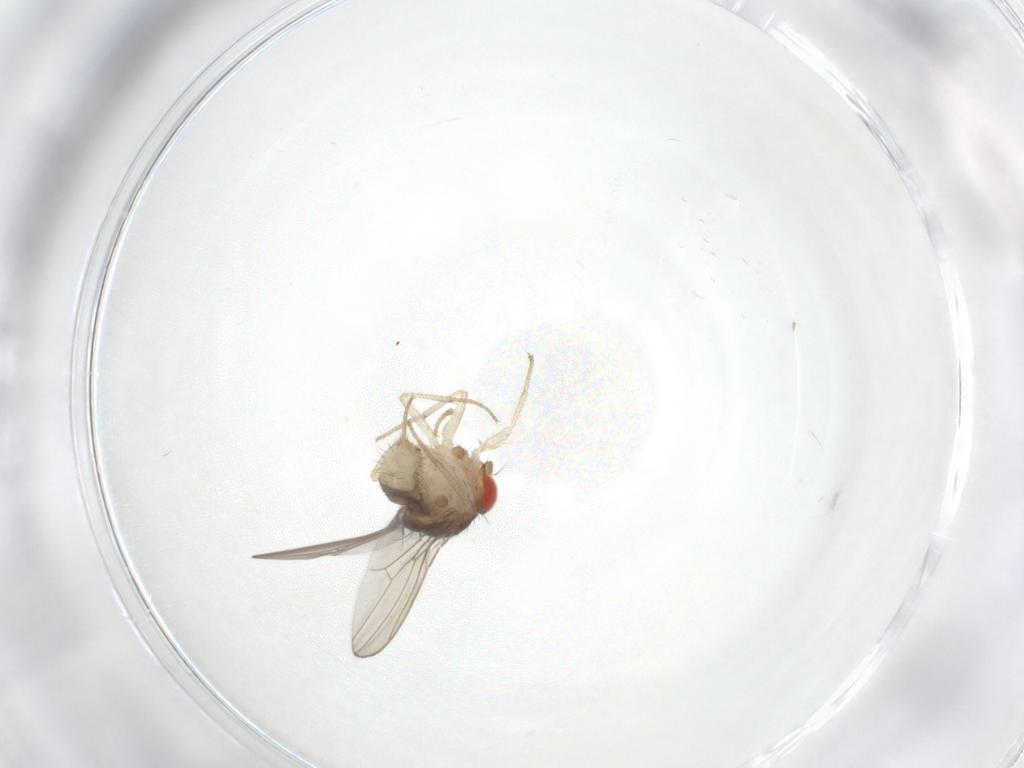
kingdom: Animalia
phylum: Arthropoda
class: Insecta
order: Diptera
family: Drosophilidae
